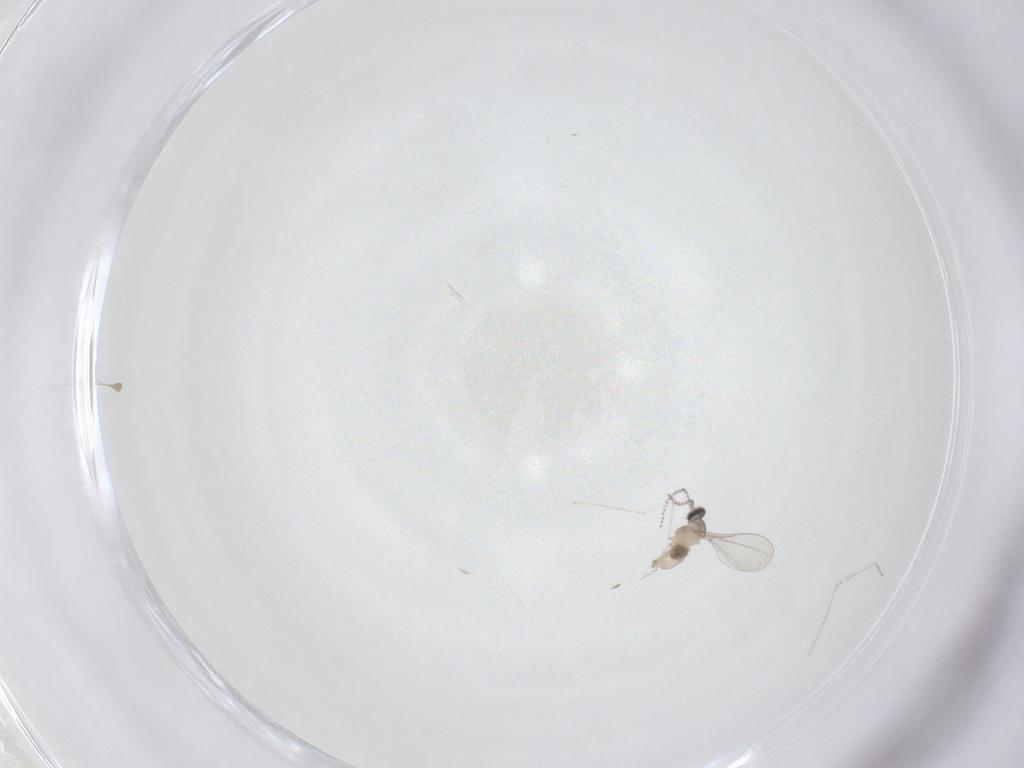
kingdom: Animalia
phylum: Arthropoda
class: Insecta
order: Diptera
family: Cecidomyiidae
